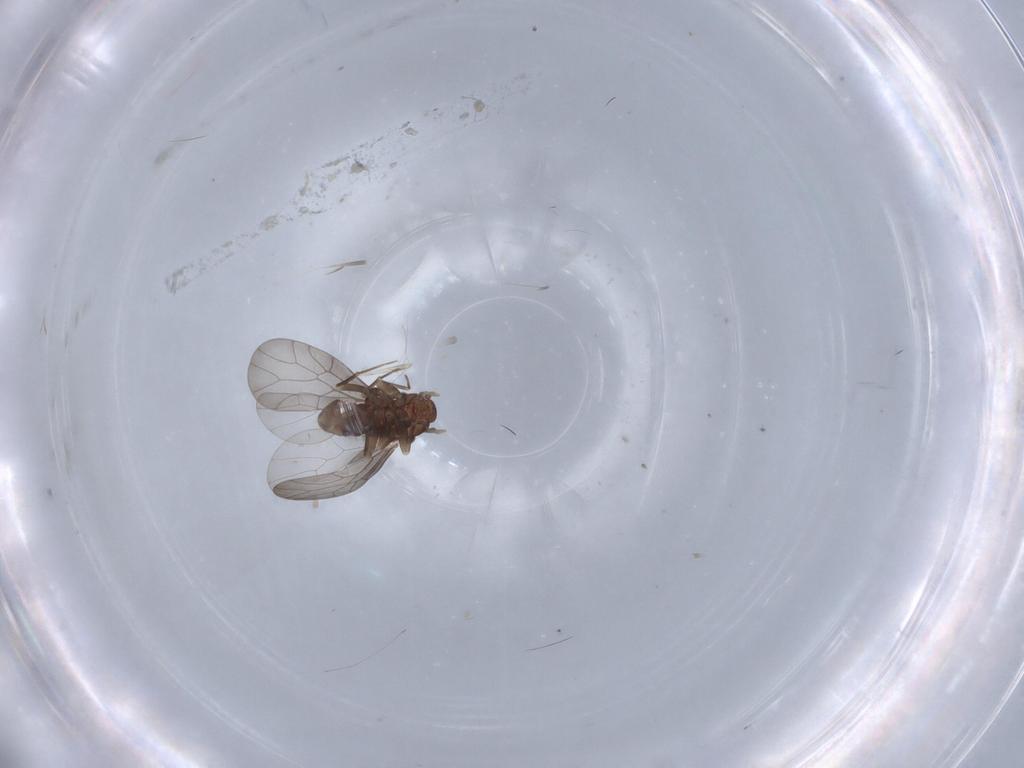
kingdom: Animalia
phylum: Arthropoda
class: Insecta
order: Psocodea
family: Lepidopsocidae
